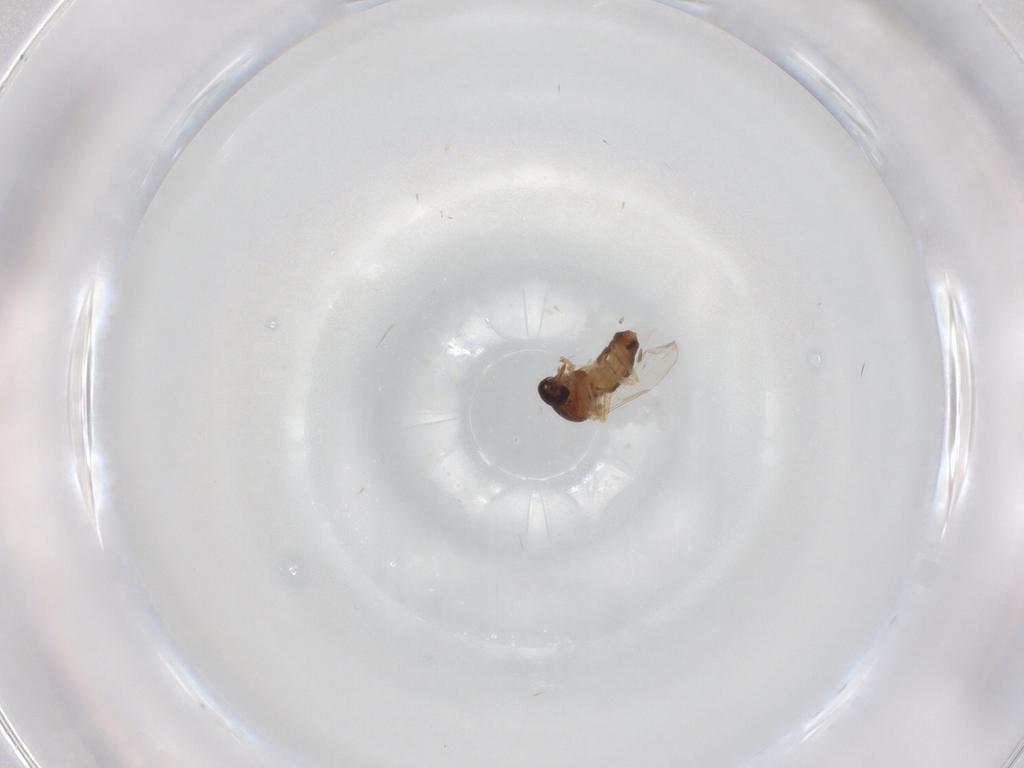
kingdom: Animalia
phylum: Arthropoda
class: Insecta
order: Diptera
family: Ceratopogonidae
